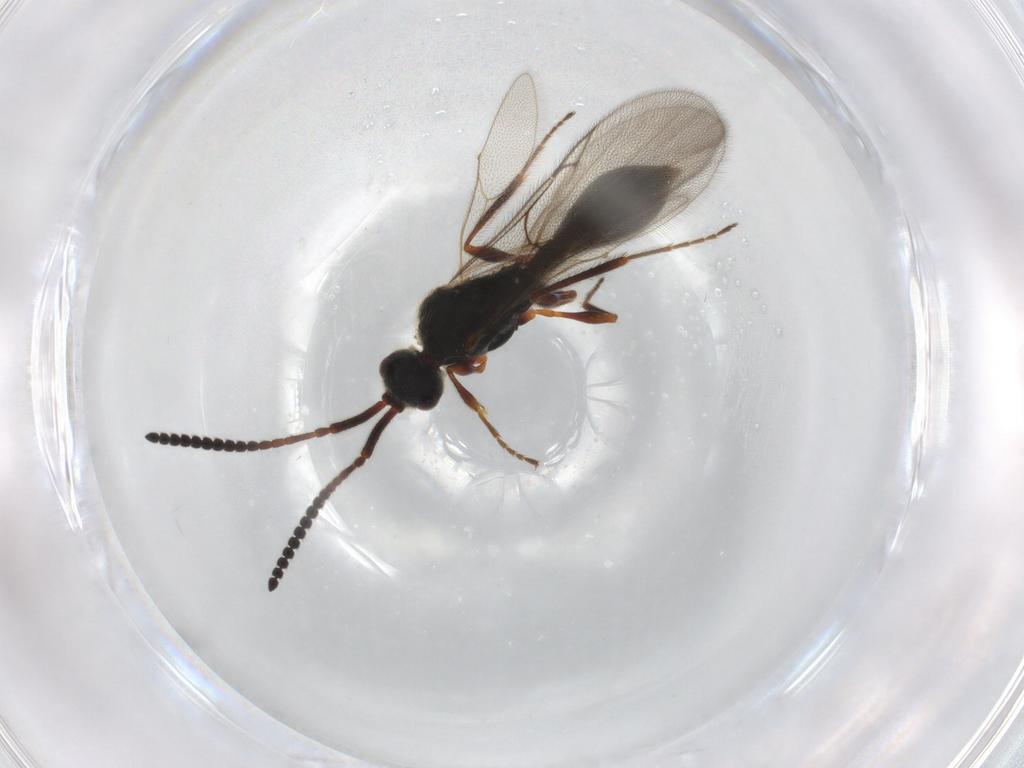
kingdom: Animalia
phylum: Arthropoda
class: Insecta
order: Hymenoptera
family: Diapriidae
